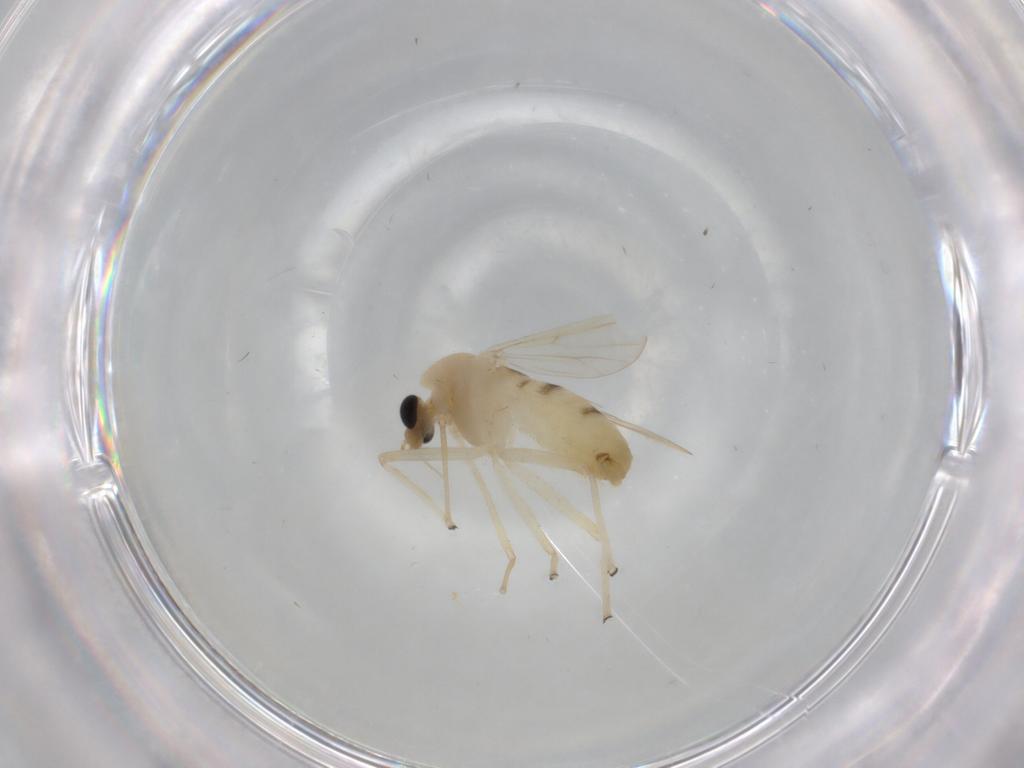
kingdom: Animalia
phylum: Arthropoda
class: Insecta
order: Diptera
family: Chironomidae
